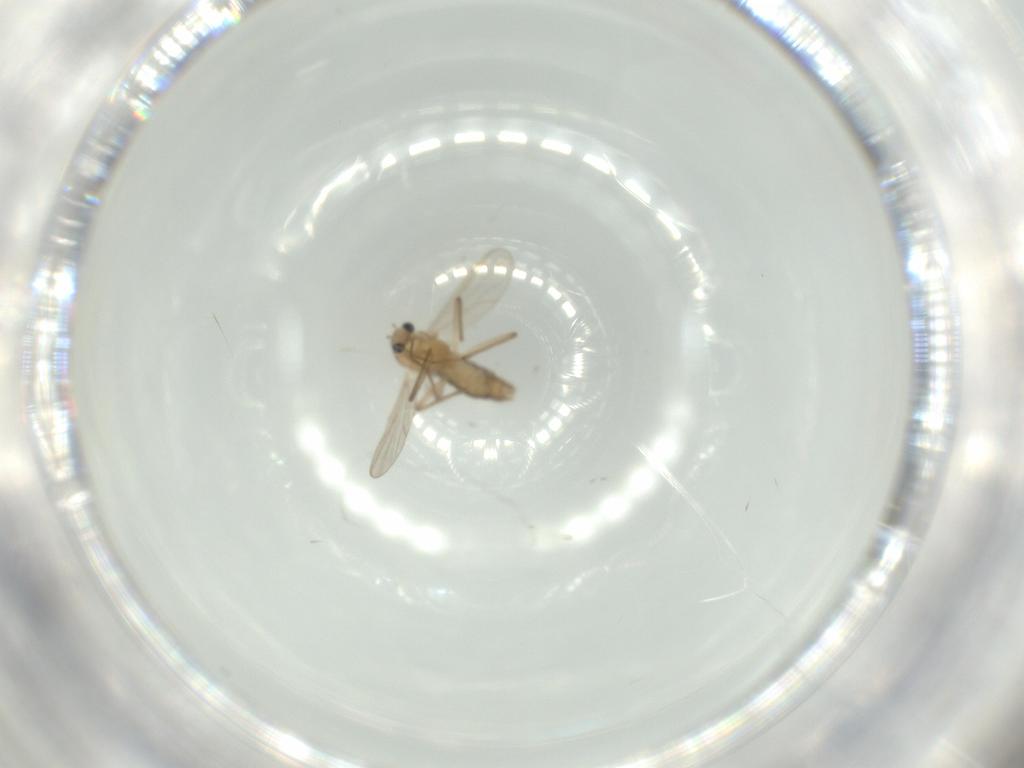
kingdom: Animalia
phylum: Arthropoda
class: Insecta
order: Diptera
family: Chironomidae
